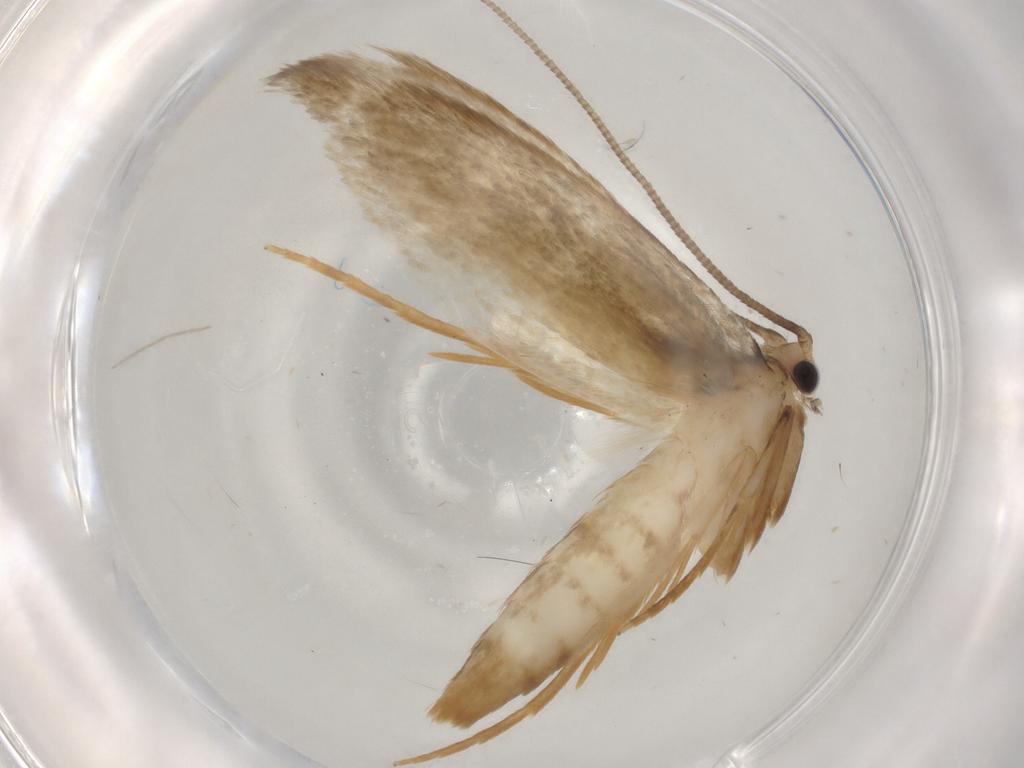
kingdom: Animalia
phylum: Arthropoda
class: Insecta
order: Lepidoptera
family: Tineidae
